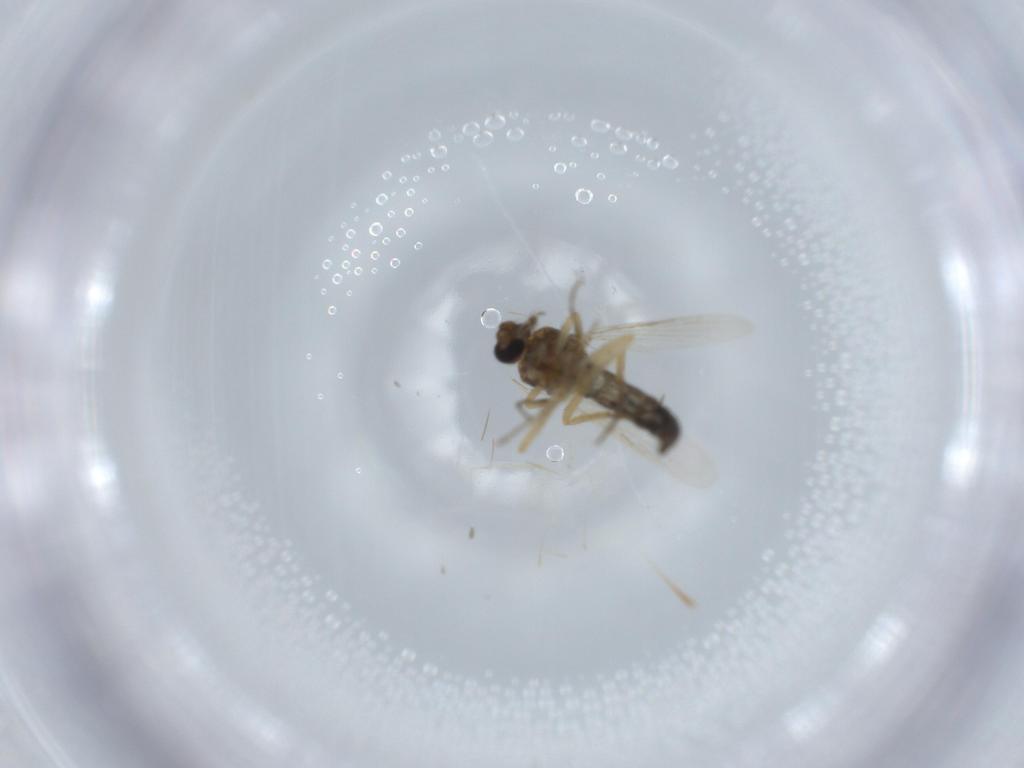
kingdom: Animalia
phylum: Arthropoda
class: Insecta
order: Diptera
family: Ceratopogonidae
